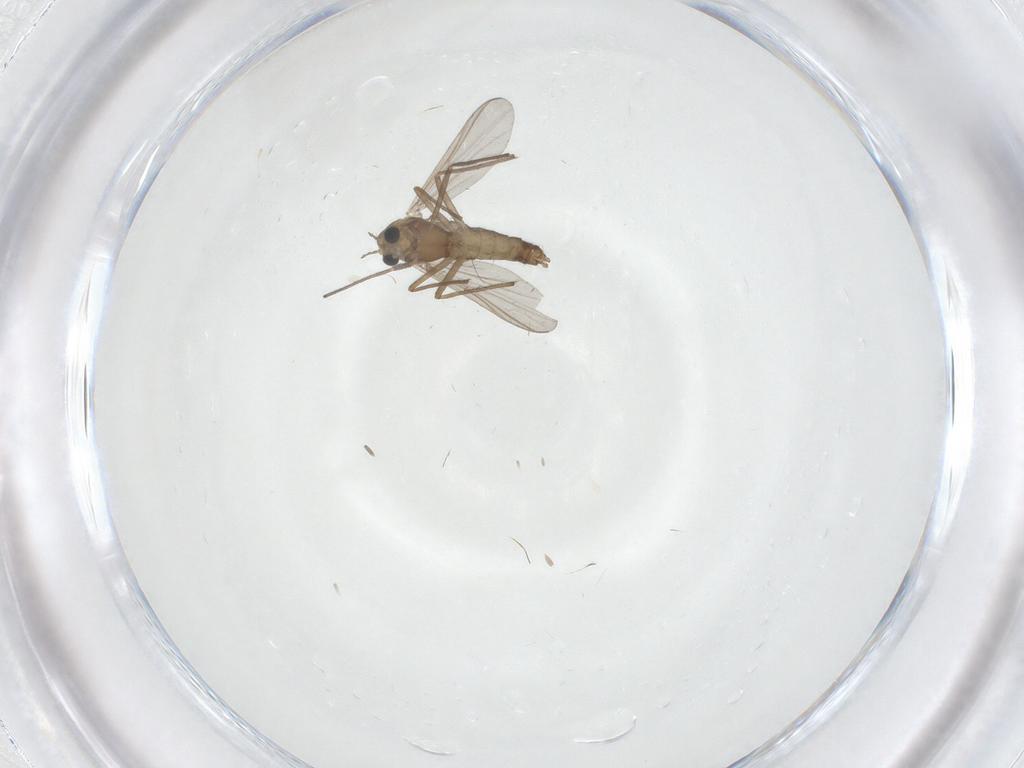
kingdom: Animalia
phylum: Arthropoda
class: Insecta
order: Diptera
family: Chironomidae
